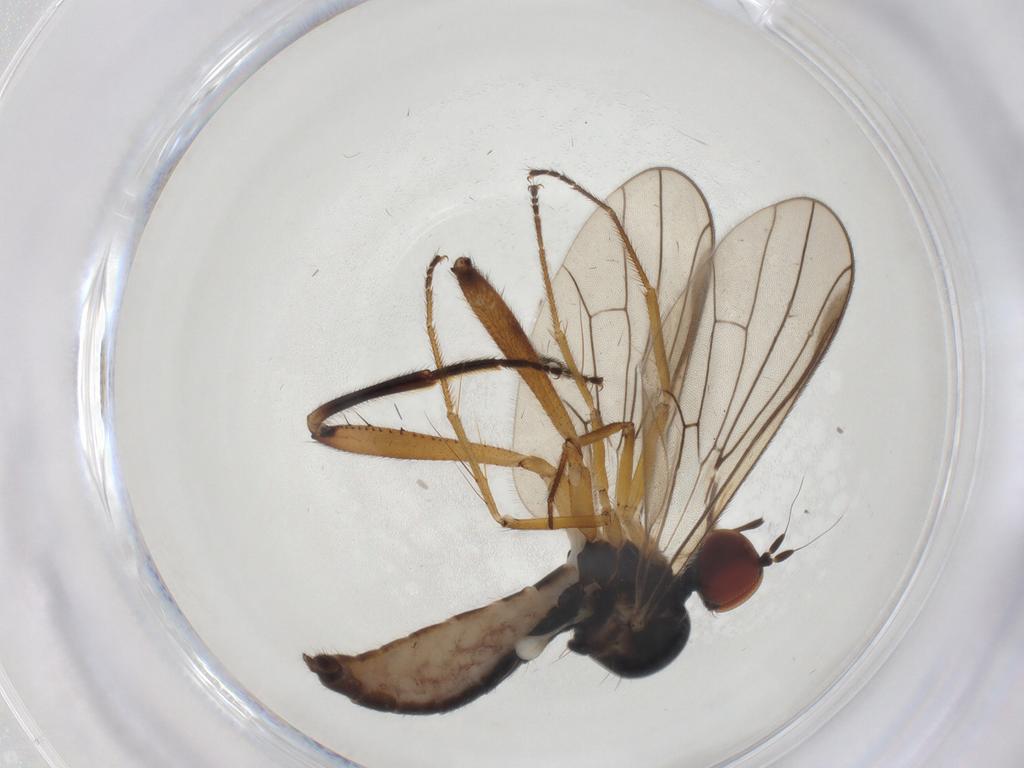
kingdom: Animalia
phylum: Arthropoda
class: Insecta
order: Diptera
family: Hybotidae
